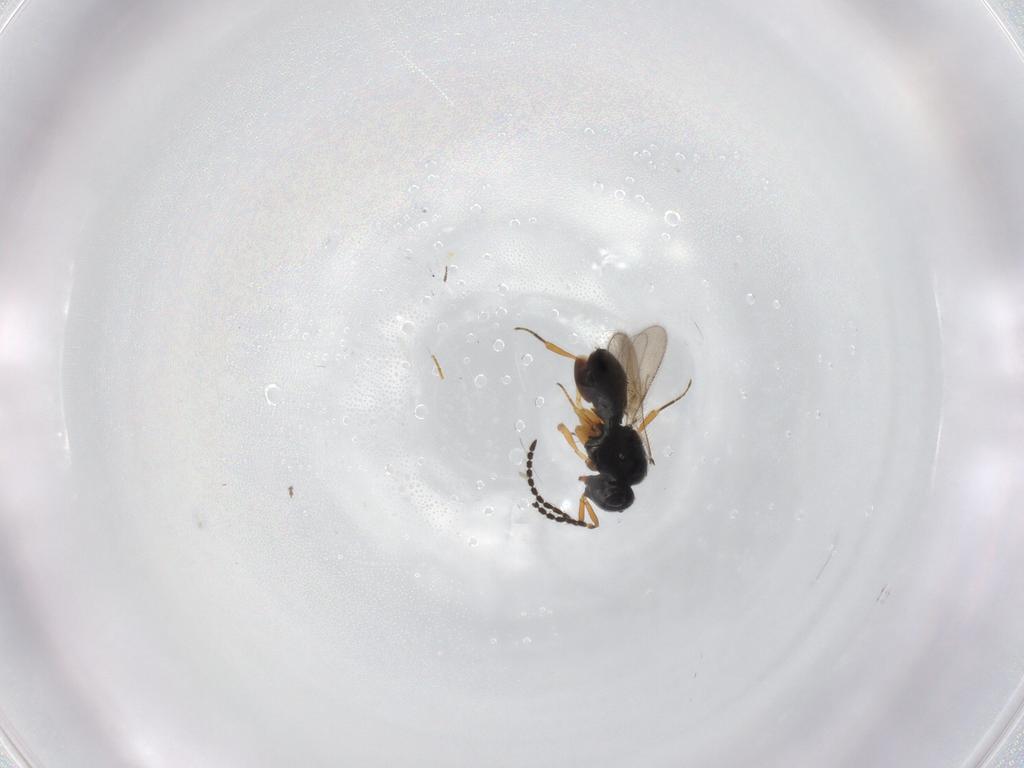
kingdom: Animalia
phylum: Arthropoda
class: Insecta
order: Hymenoptera
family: Scelionidae
